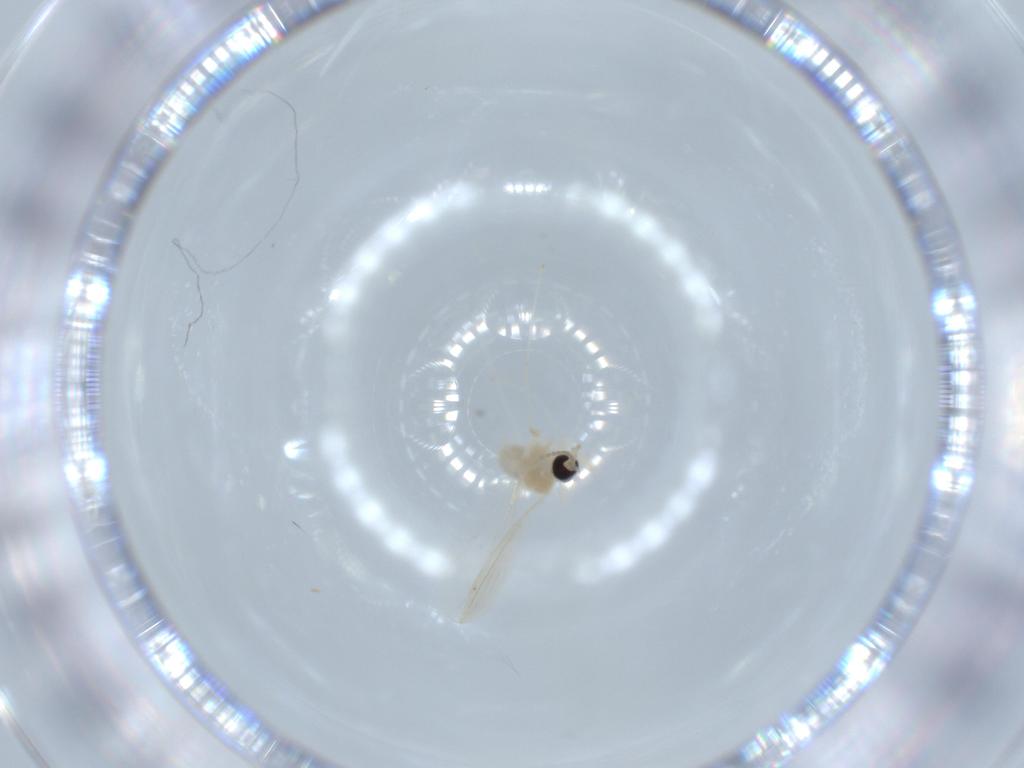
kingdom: Animalia
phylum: Arthropoda
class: Insecta
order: Diptera
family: Cecidomyiidae
